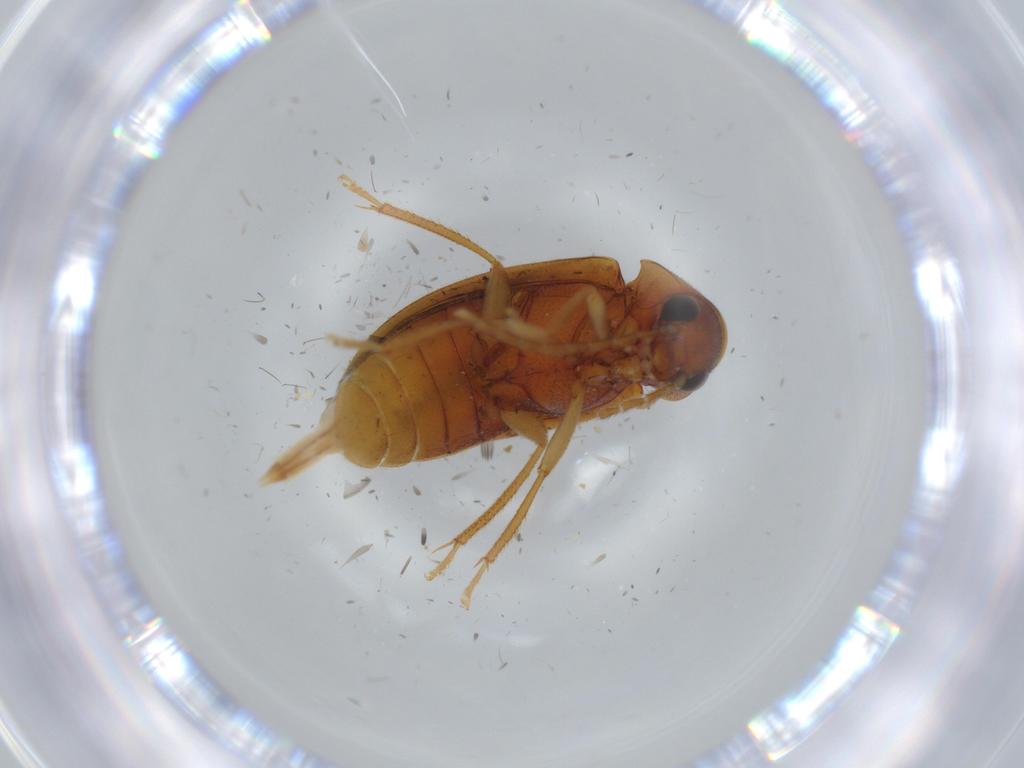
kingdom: Animalia
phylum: Arthropoda
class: Insecta
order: Coleoptera
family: Ptilodactylidae
